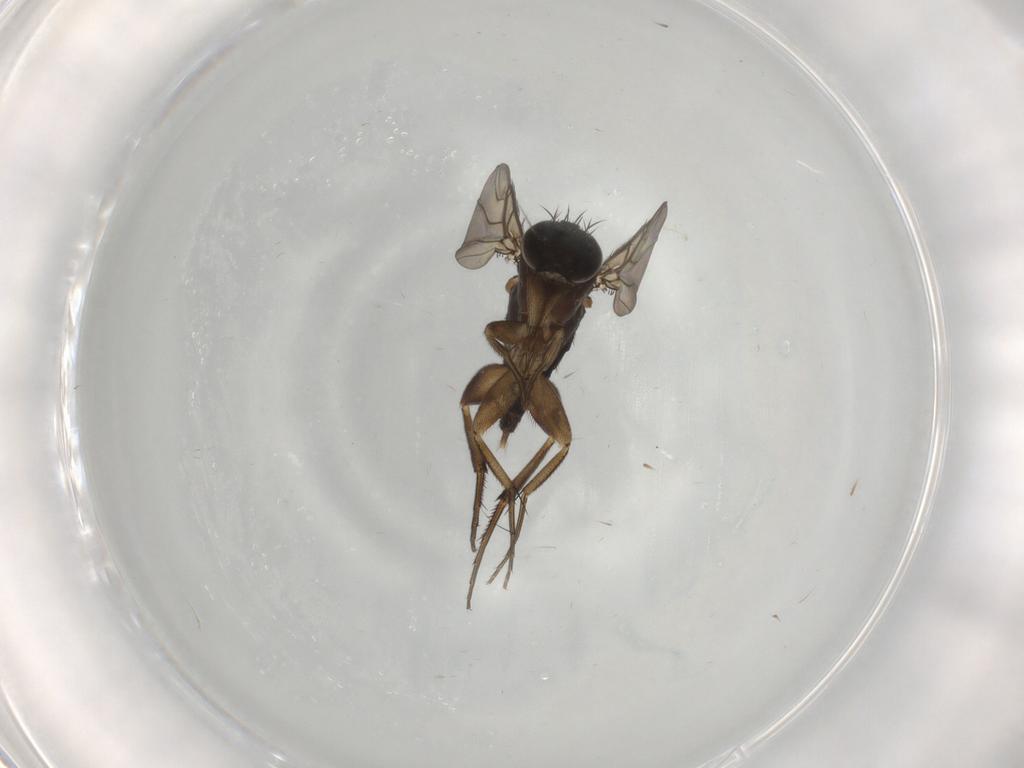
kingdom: Animalia
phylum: Arthropoda
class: Insecta
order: Diptera
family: Phoridae
